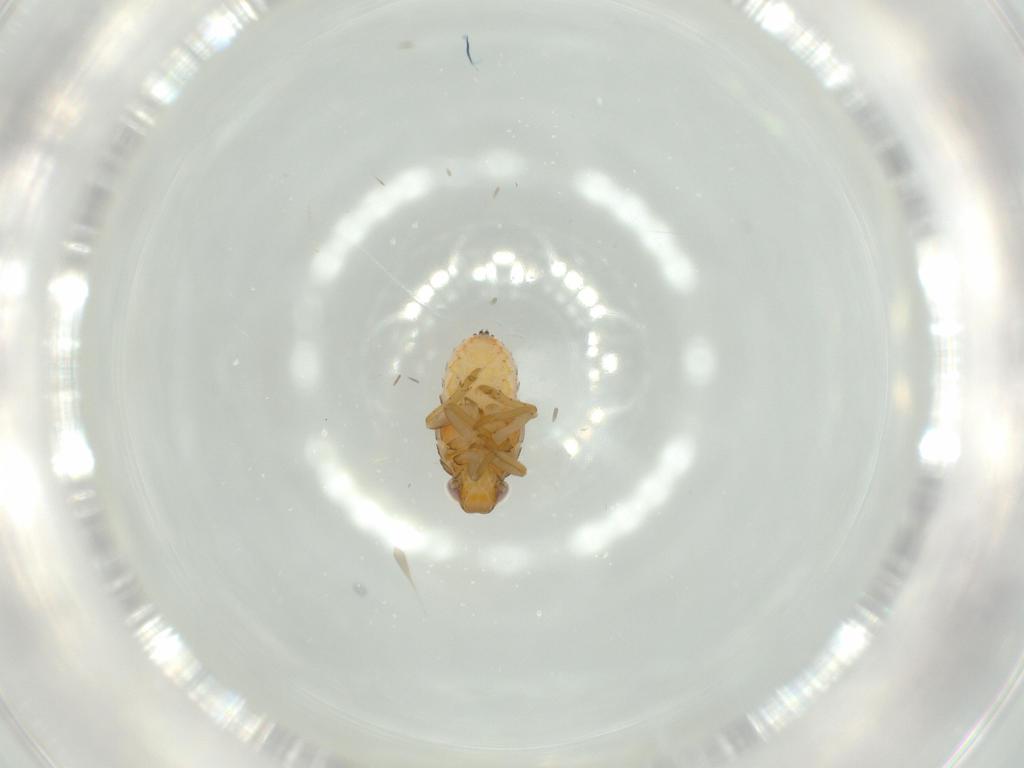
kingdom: Animalia
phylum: Arthropoda
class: Insecta
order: Hemiptera
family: Issidae
